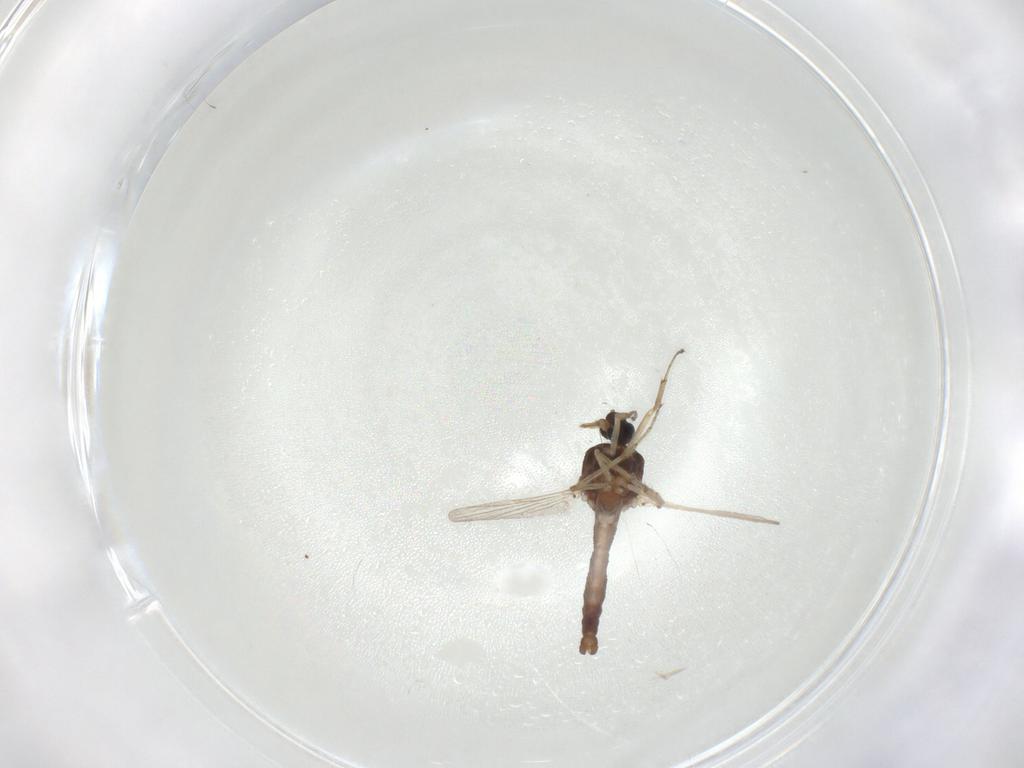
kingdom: Animalia
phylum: Arthropoda
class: Insecta
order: Diptera
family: Ceratopogonidae
